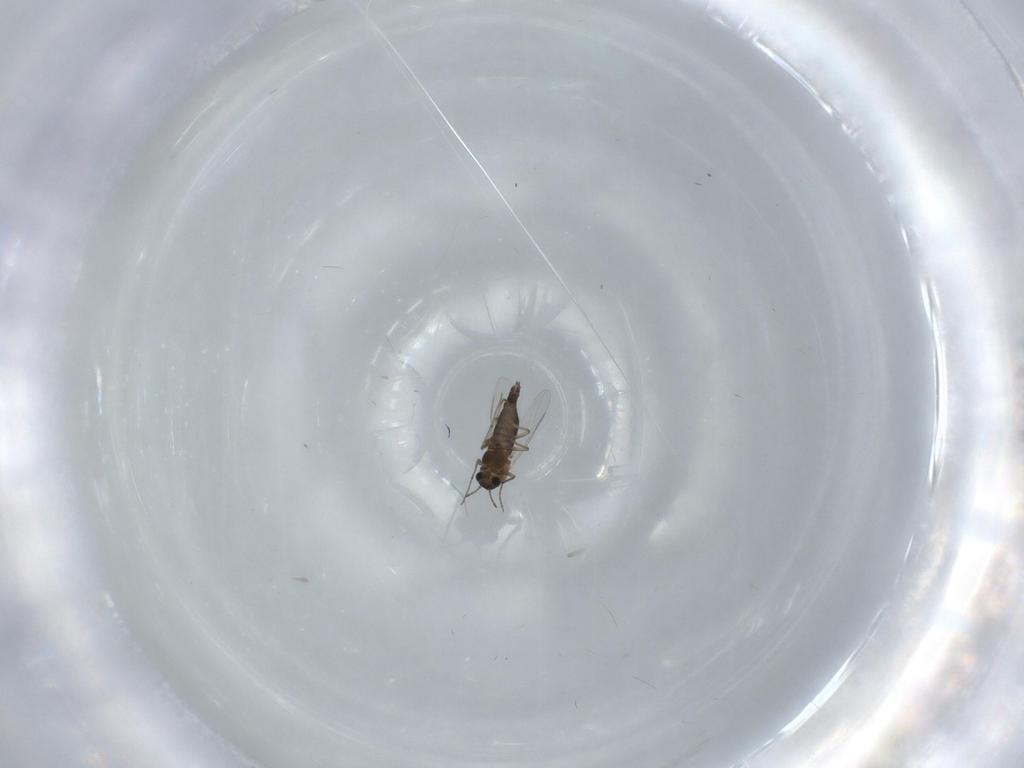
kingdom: Animalia
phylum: Arthropoda
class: Insecta
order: Diptera
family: Chironomidae
